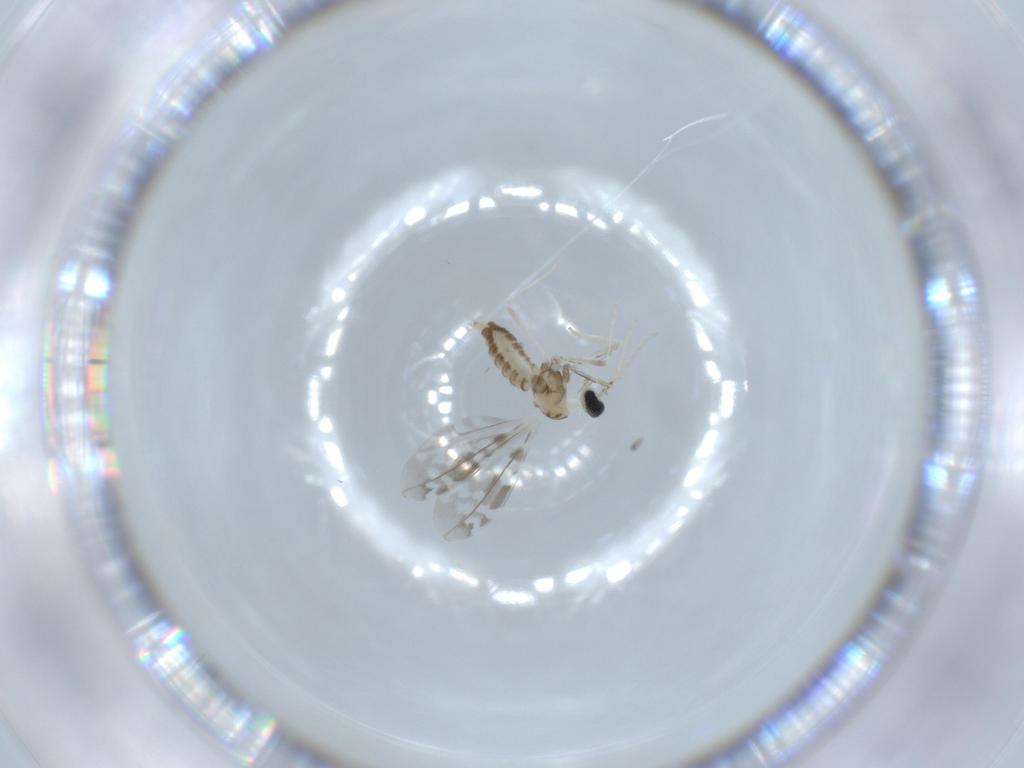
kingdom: Animalia
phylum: Arthropoda
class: Insecta
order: Diptera
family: Cecidomyiidae
